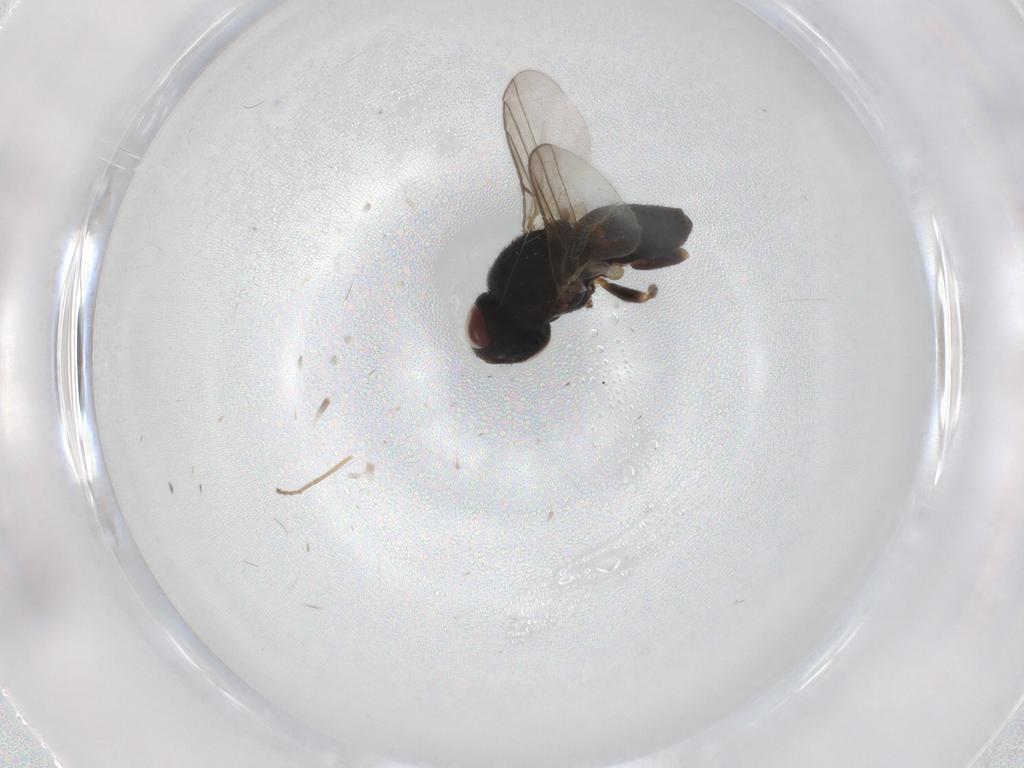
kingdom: Animalia
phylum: Arthropoda
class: Insecta
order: Diptera
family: Chloropidae
